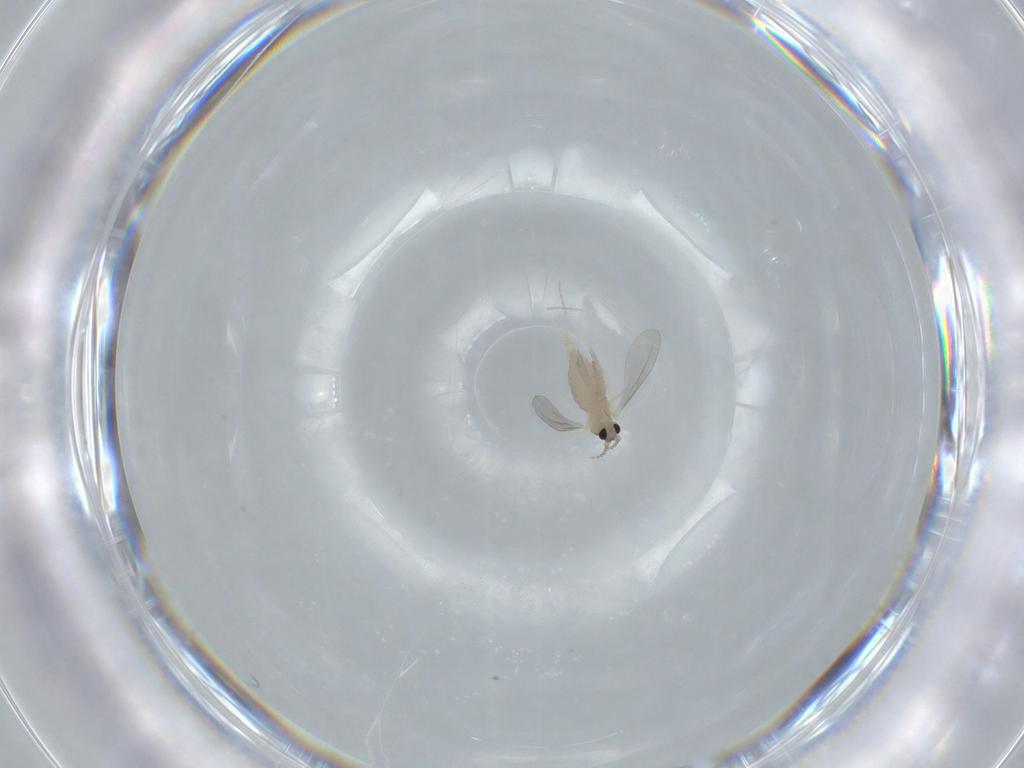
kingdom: Animalia
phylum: Arthropoda
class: Insecta
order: Diptera
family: Cecidomyiidae
